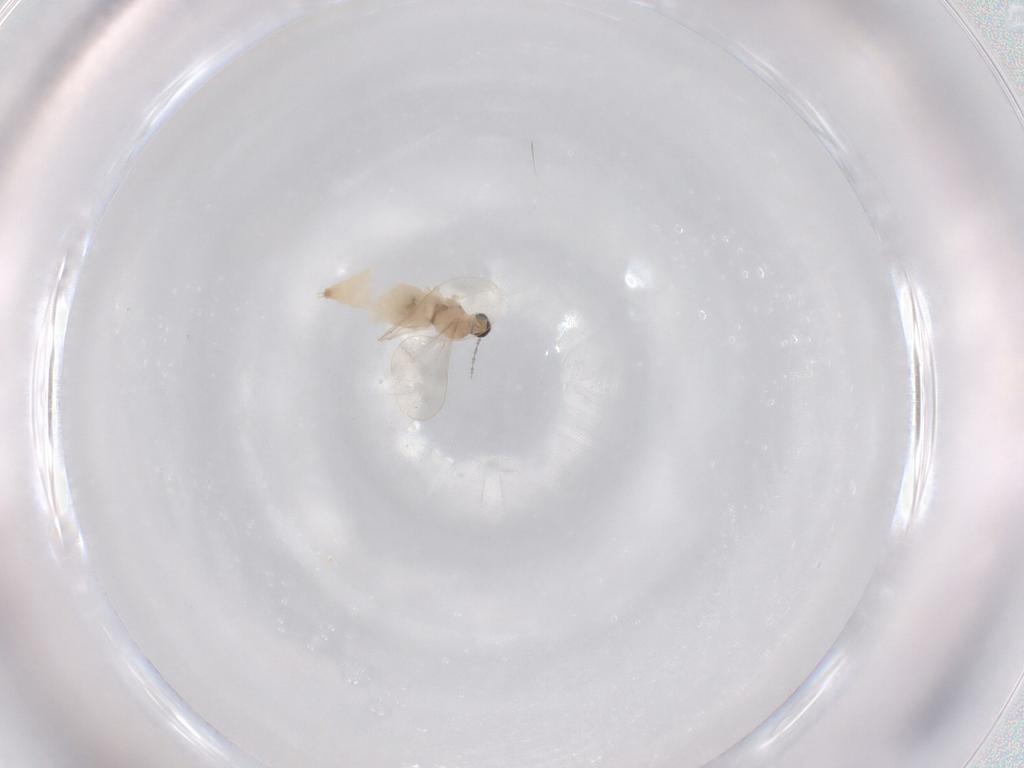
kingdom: Animalia
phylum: Arthropoda
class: Insecta
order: Diptera
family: Cecidomyiidae
